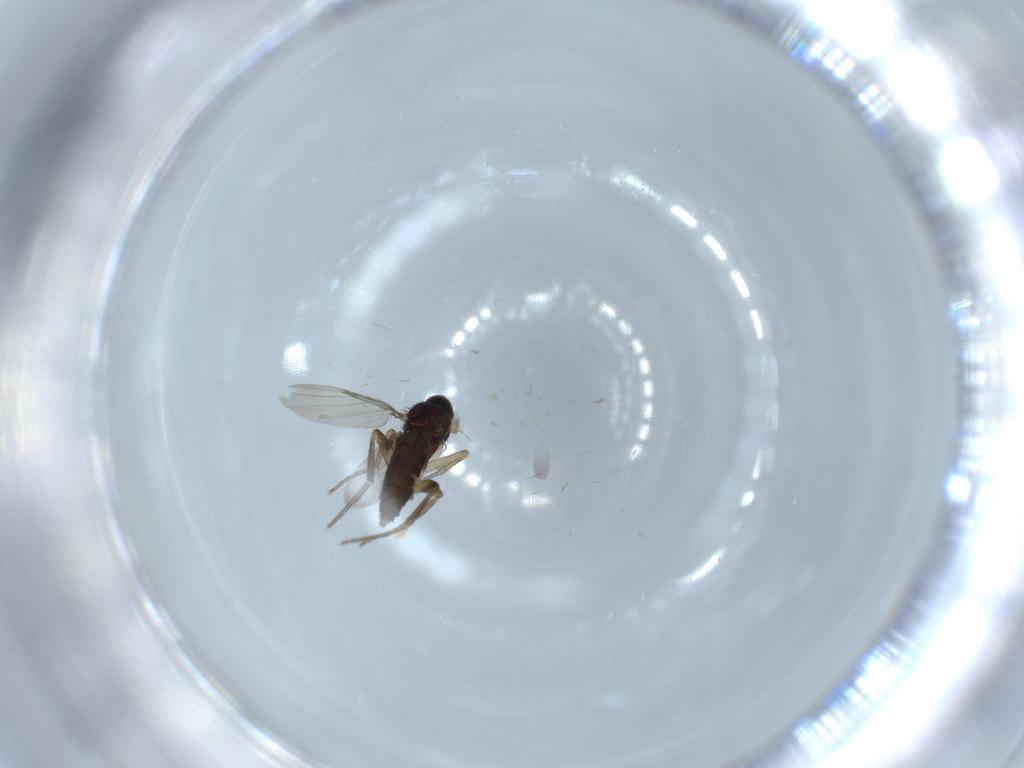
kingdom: Animalia
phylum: Arthropoda
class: Insecta
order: Diptera
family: Phoridae
